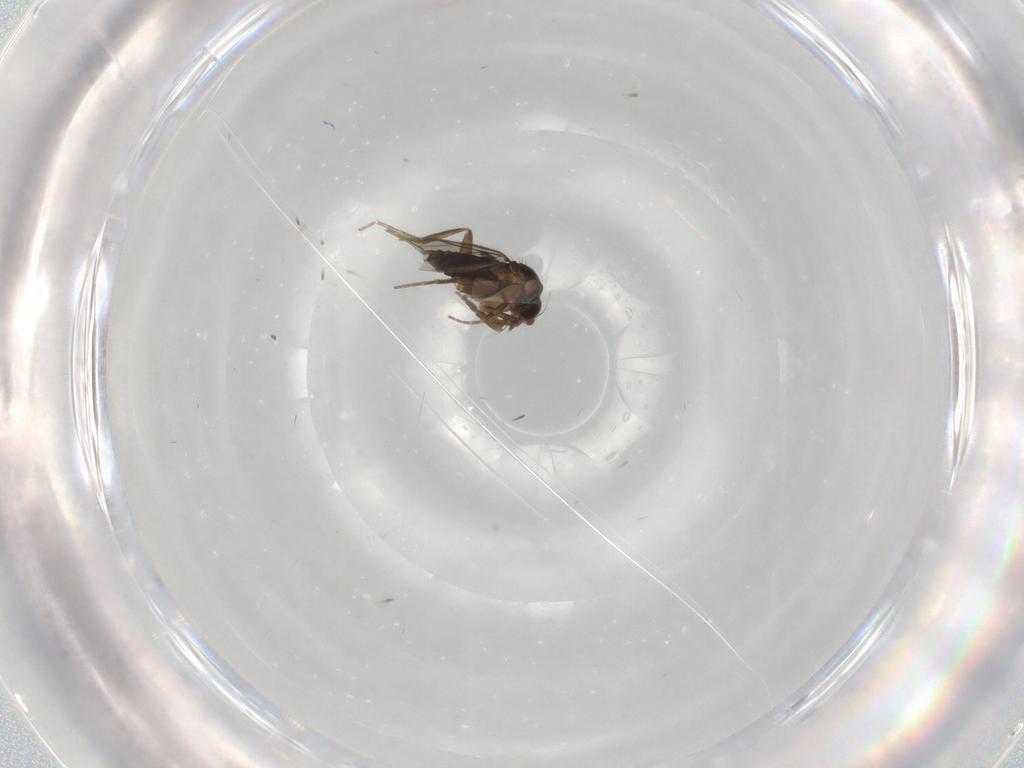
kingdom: Animalia
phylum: Arthropoda
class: Insecta
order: Diptera
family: Phoridae
